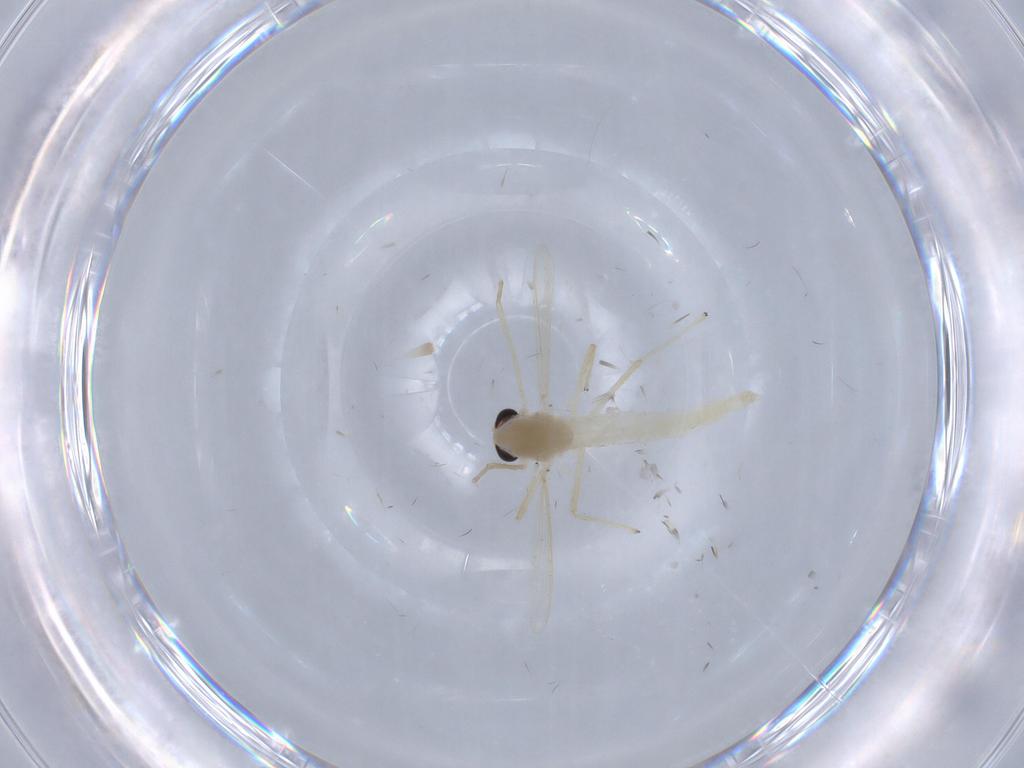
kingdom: Animalia
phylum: Arthropoda
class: Insecta
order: Diptera
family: Chironomidae
